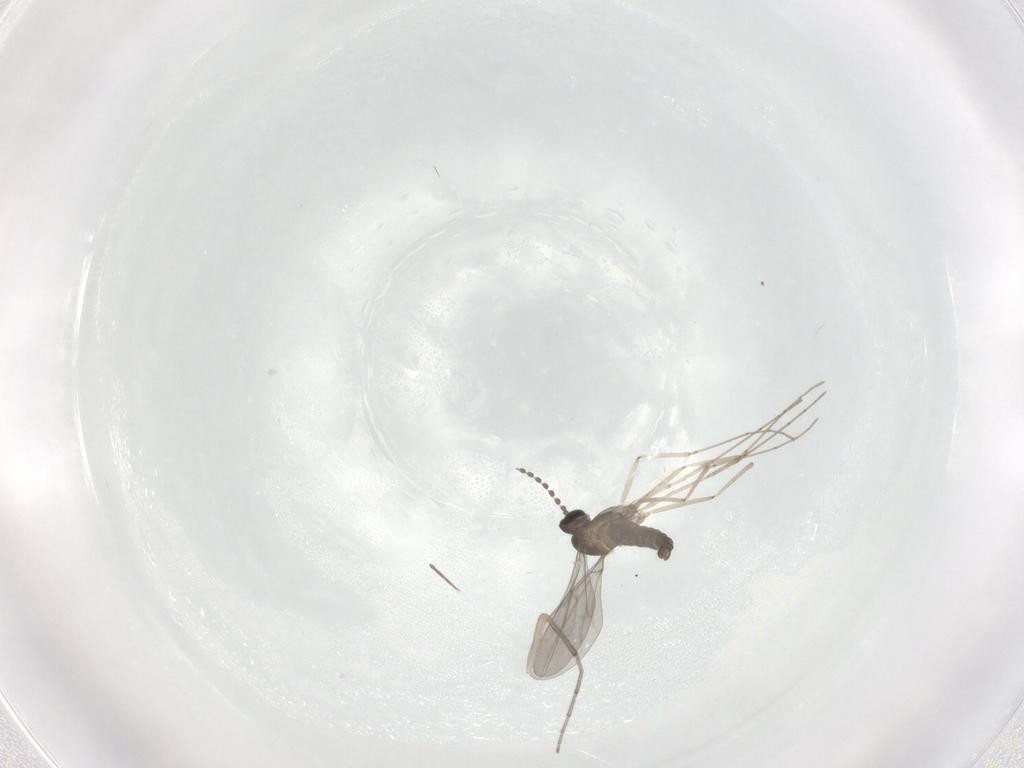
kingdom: Animalia
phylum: Arthropoda
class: Insecta
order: Diptera
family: Cecidomyiidae
